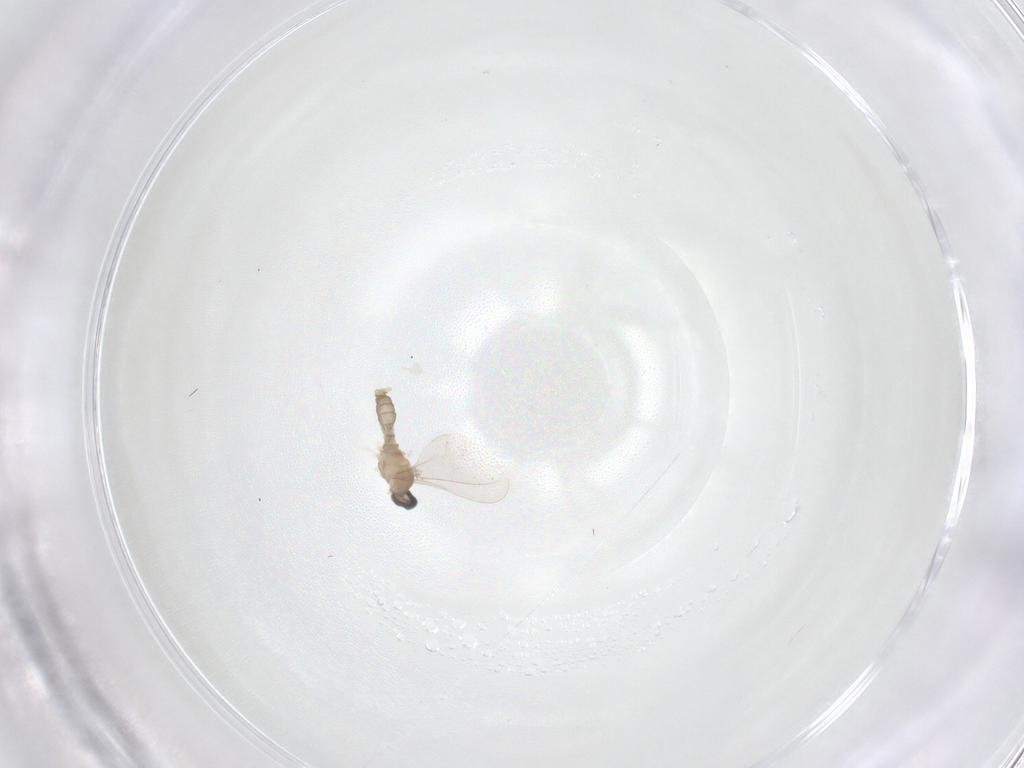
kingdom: Animalia
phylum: Arthropoda
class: Insecta
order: Diptera
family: Cecidomyiidae
